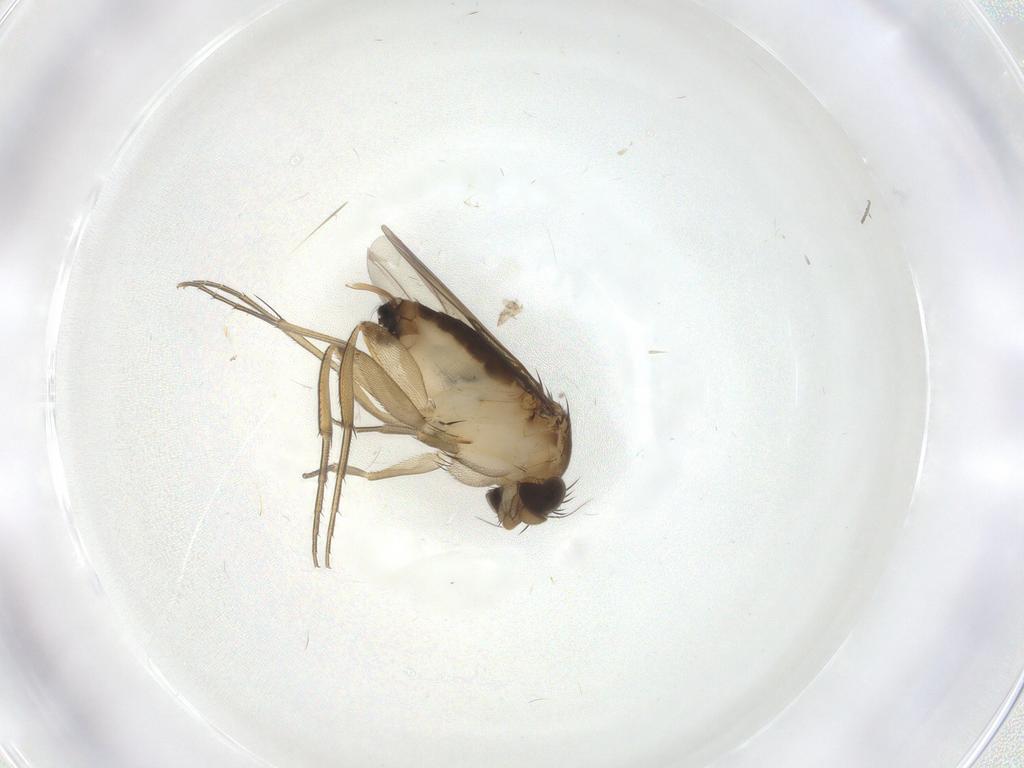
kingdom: Animalia
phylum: Arthropoda
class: Insecta
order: Diptera
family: Phoridae
